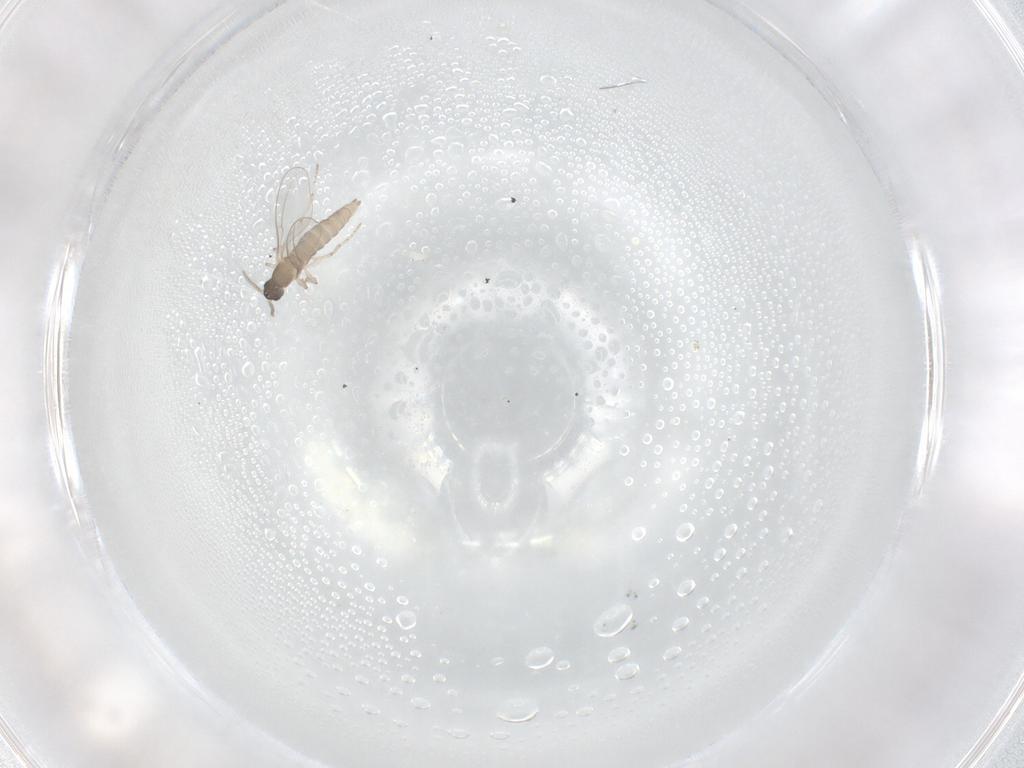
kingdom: Animalia
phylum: Arthropoda
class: Insecta
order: Diptera
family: Cecidomyiidae
